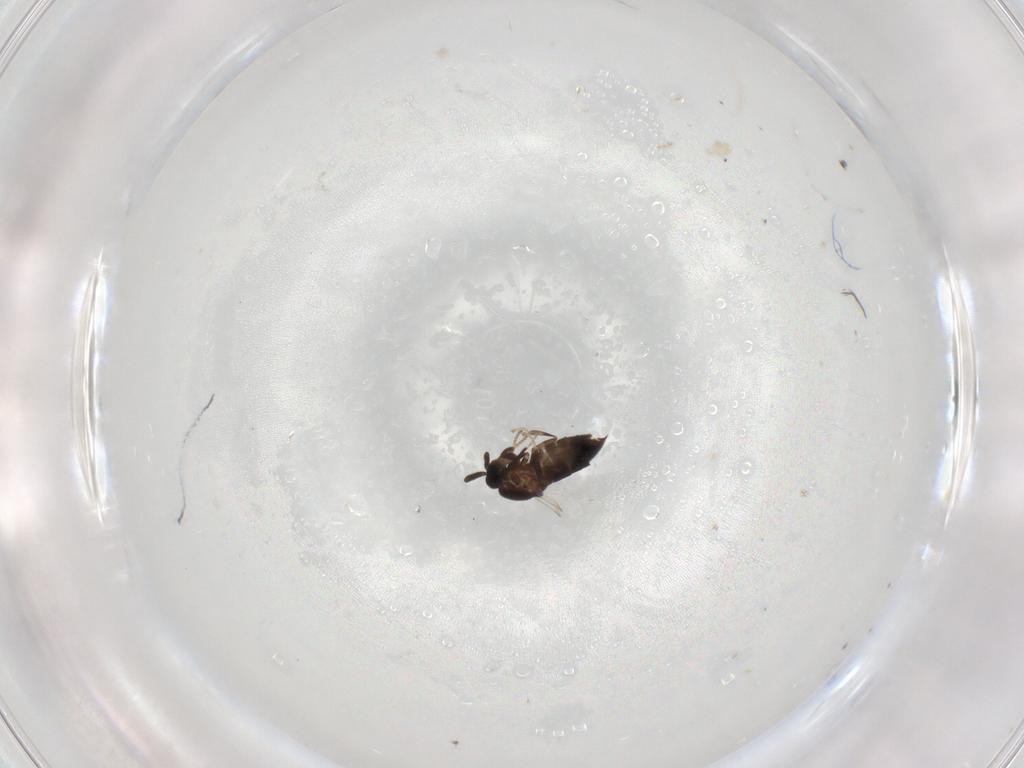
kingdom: Animalia
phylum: Arthropoda
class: Insecta
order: Diptera
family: Scatopsidae
